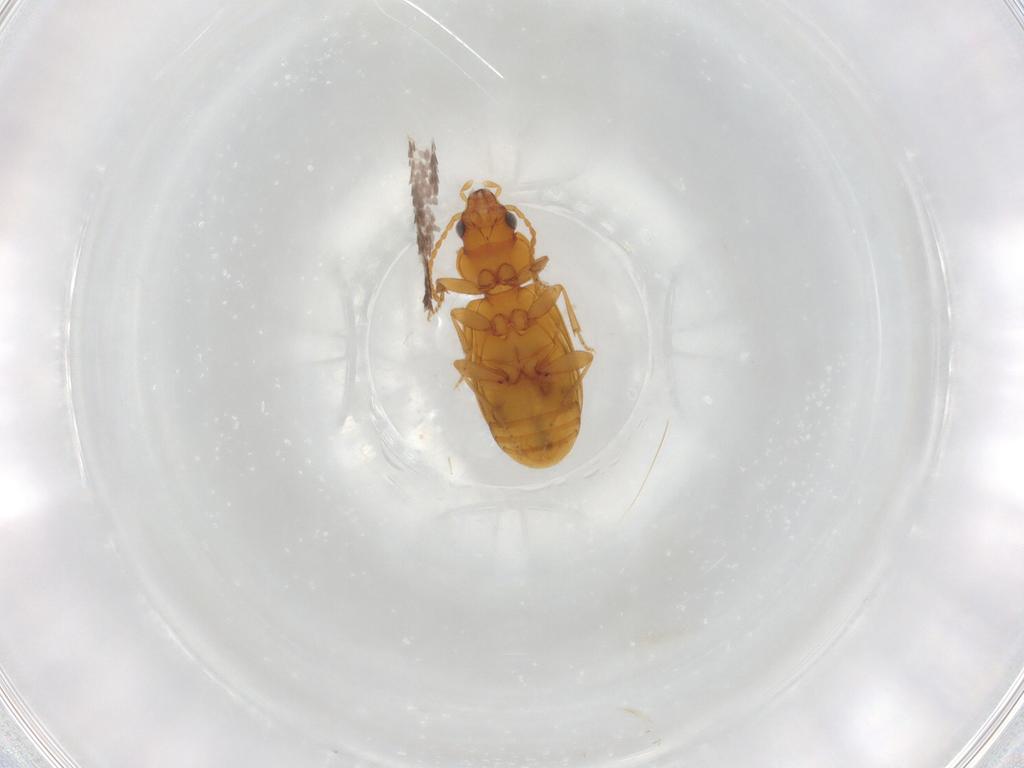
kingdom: Animalia
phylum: Arthropoda
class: Insecta
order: Coleoptera
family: Carabidae
